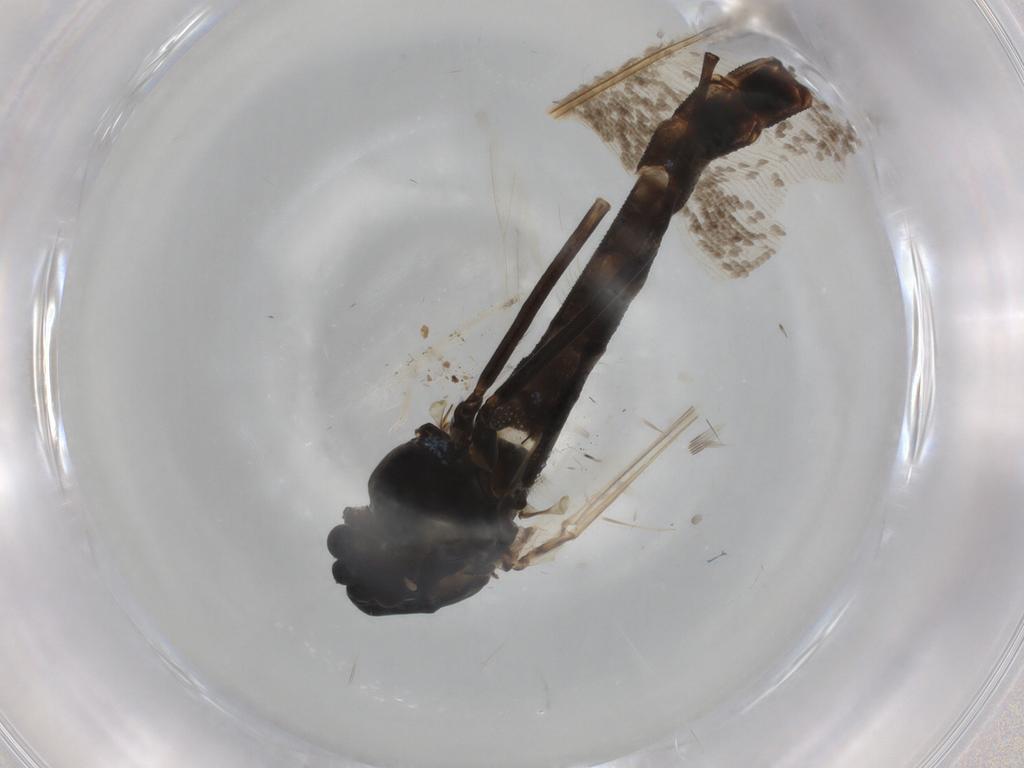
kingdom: Animalia
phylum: Arthropoda
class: Insecta
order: Diptera
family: Chironomidae
